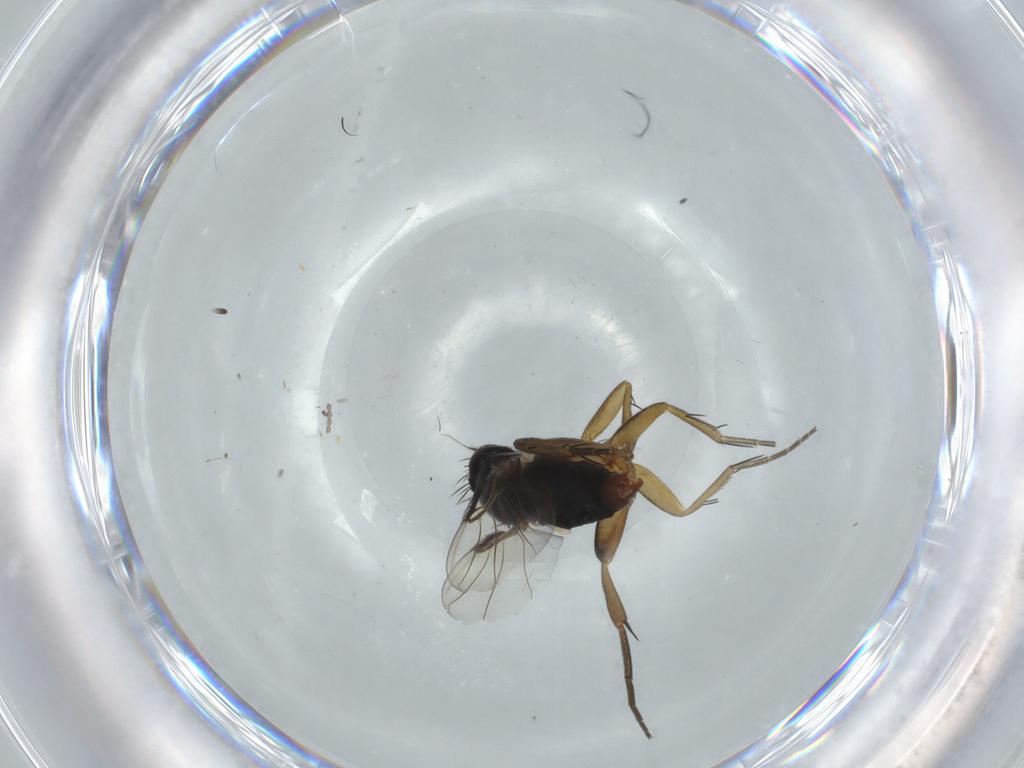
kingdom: Animalia
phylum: Arthropoda
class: Insecta
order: Diptera
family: Phoridae
